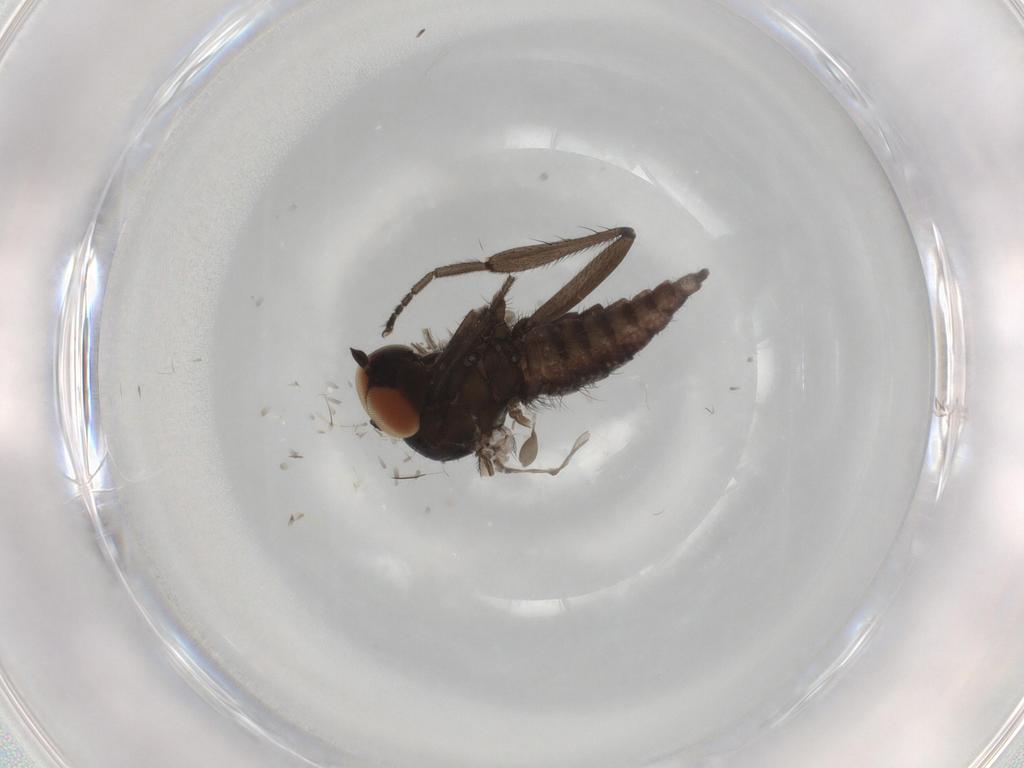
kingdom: Animalia
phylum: Arthropoda
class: Insecta
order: Diptera
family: Hybotidae
